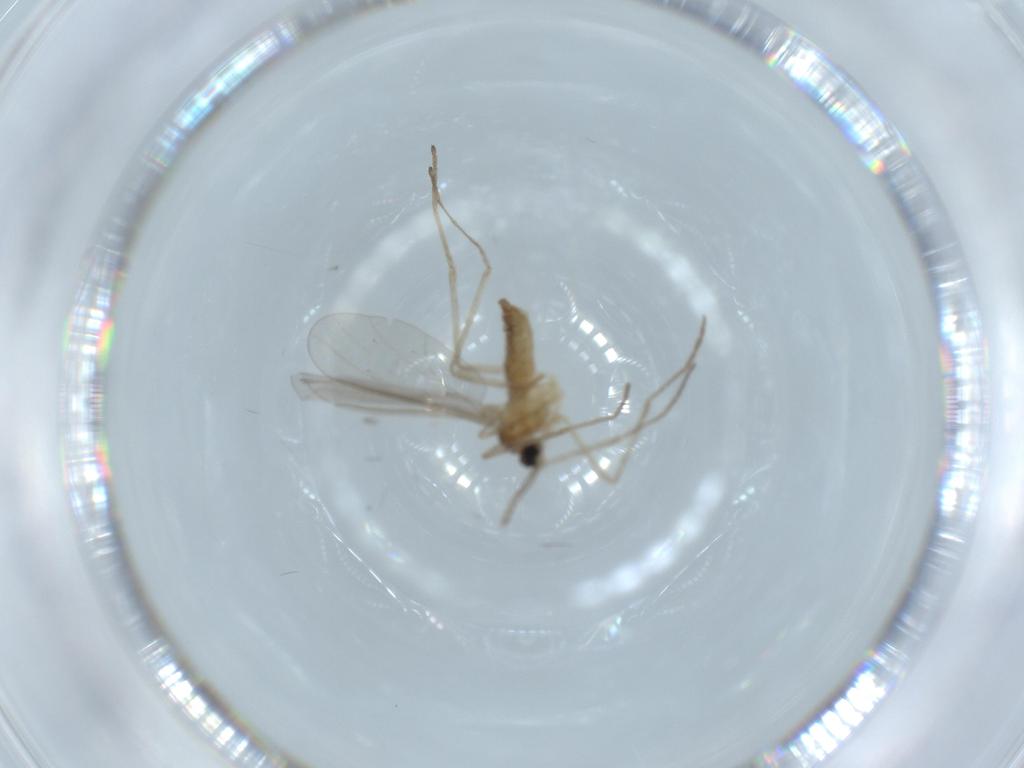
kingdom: Animalia
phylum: Arthropoda
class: Insecta
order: Diptera
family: Cecidomyiidae
